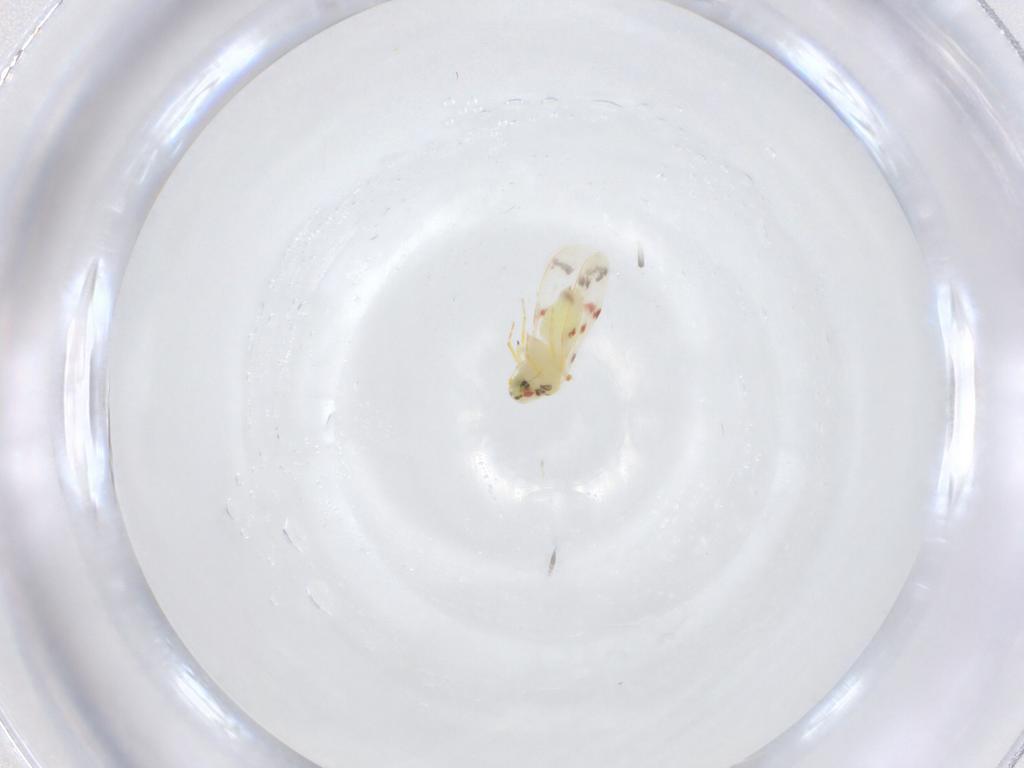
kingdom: Animalia
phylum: Arthropoda
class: Insecta
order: Hemiptera
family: Aleyrodidae
